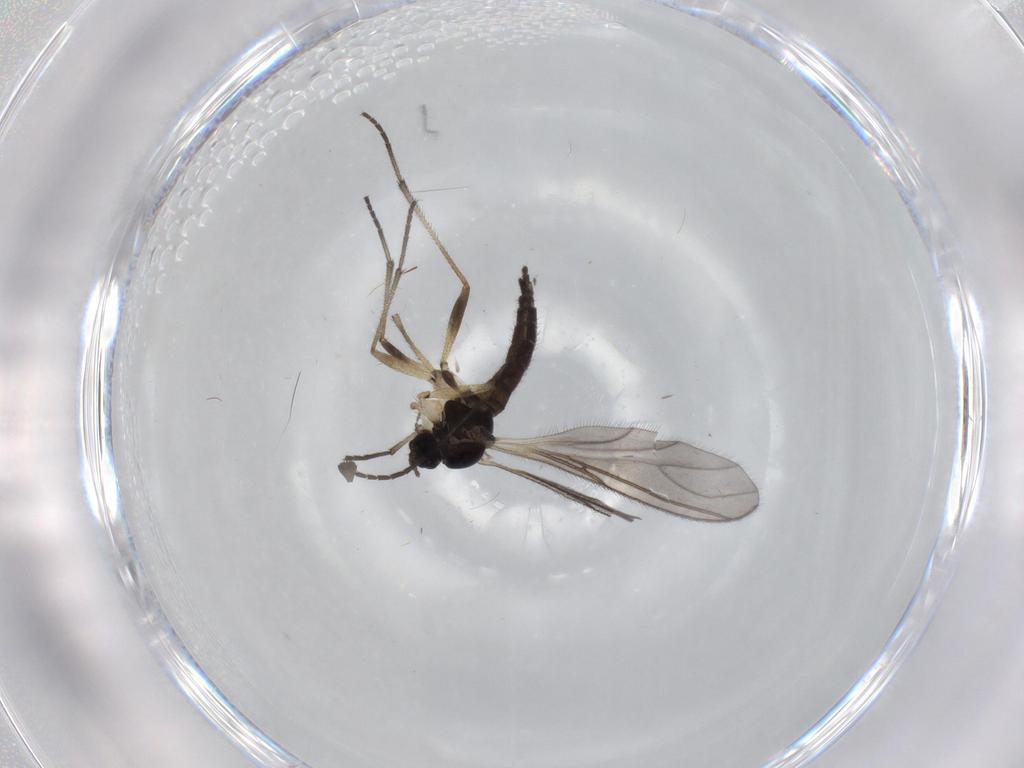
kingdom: Animalia
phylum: Arthropoda
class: Insecta
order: Diptera
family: Sciaridae
